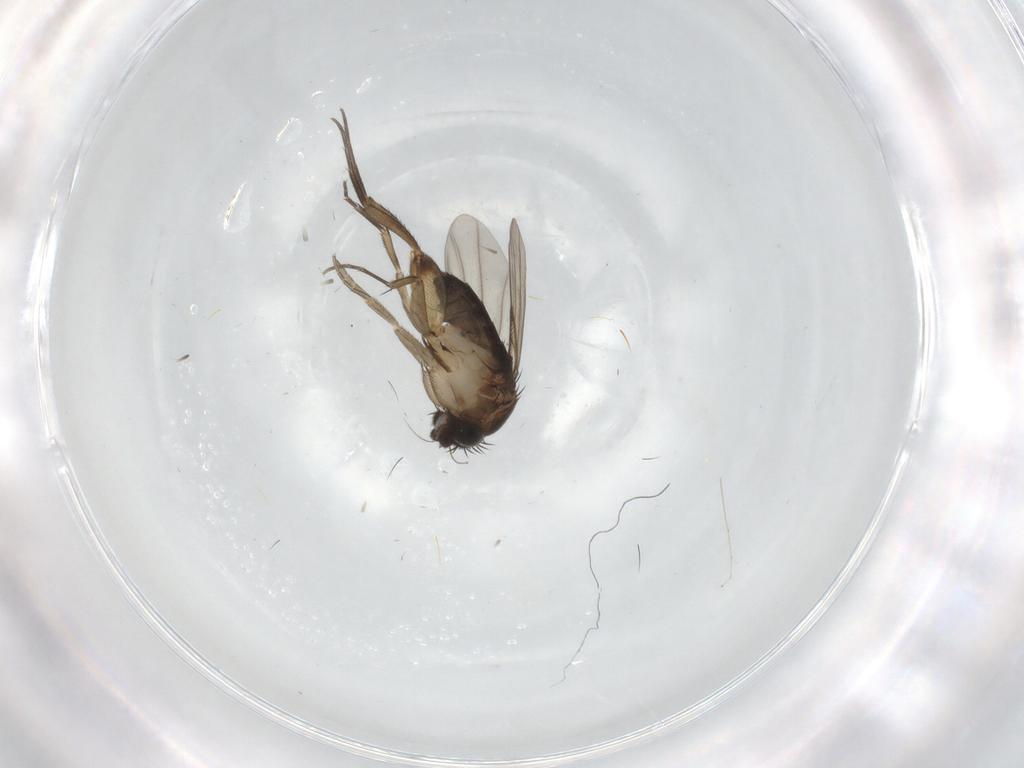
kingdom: Animalia
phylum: Arthropoda
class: Insecta
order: Diptera
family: Phoridae
